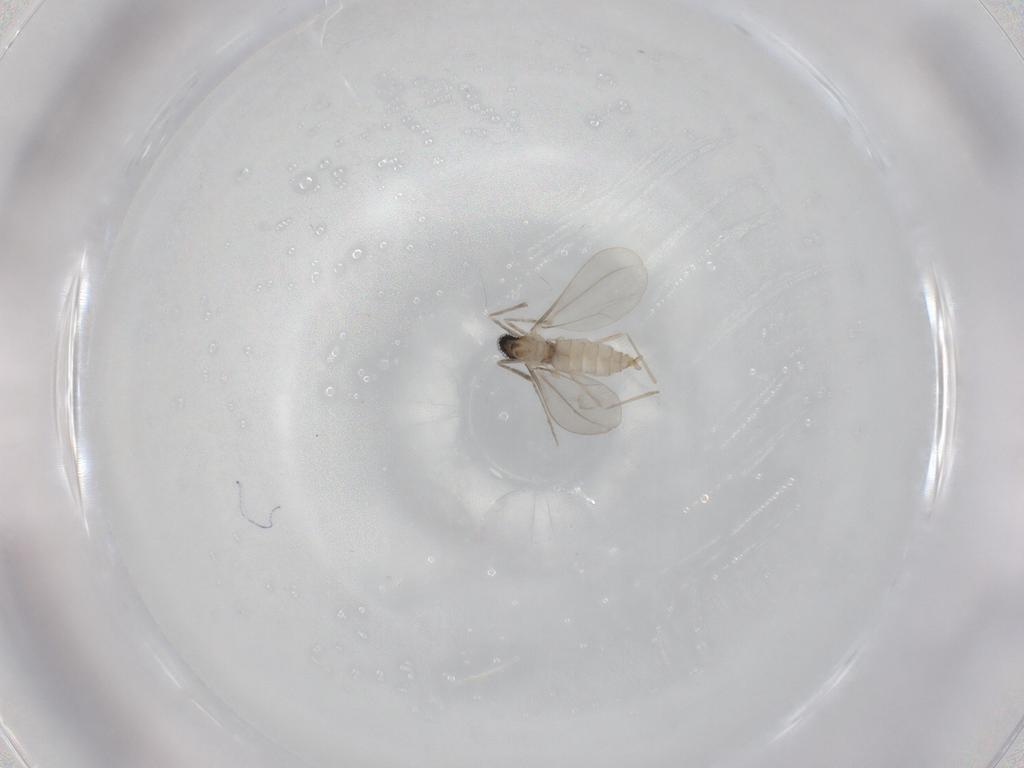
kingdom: Animalia
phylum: Arthropoda
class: Insecta
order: Diptera
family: Cecidomyiidae
